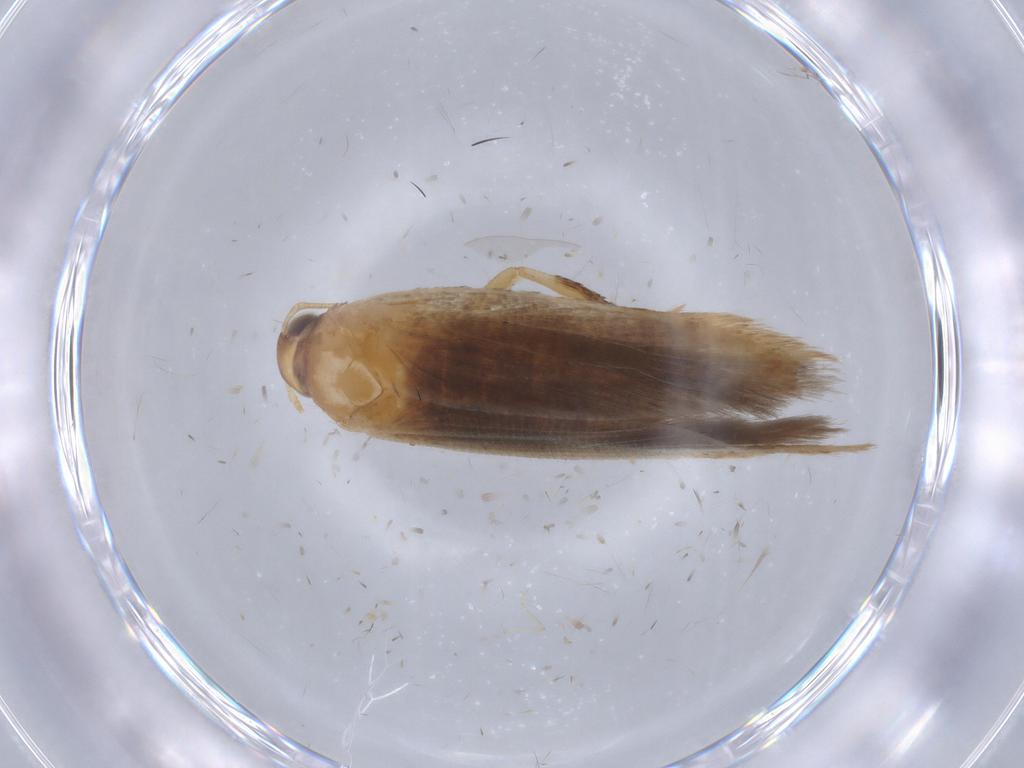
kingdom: Animalia
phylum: Arthropoda
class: Insecta
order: Lepidoptera
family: Gelechiidae
